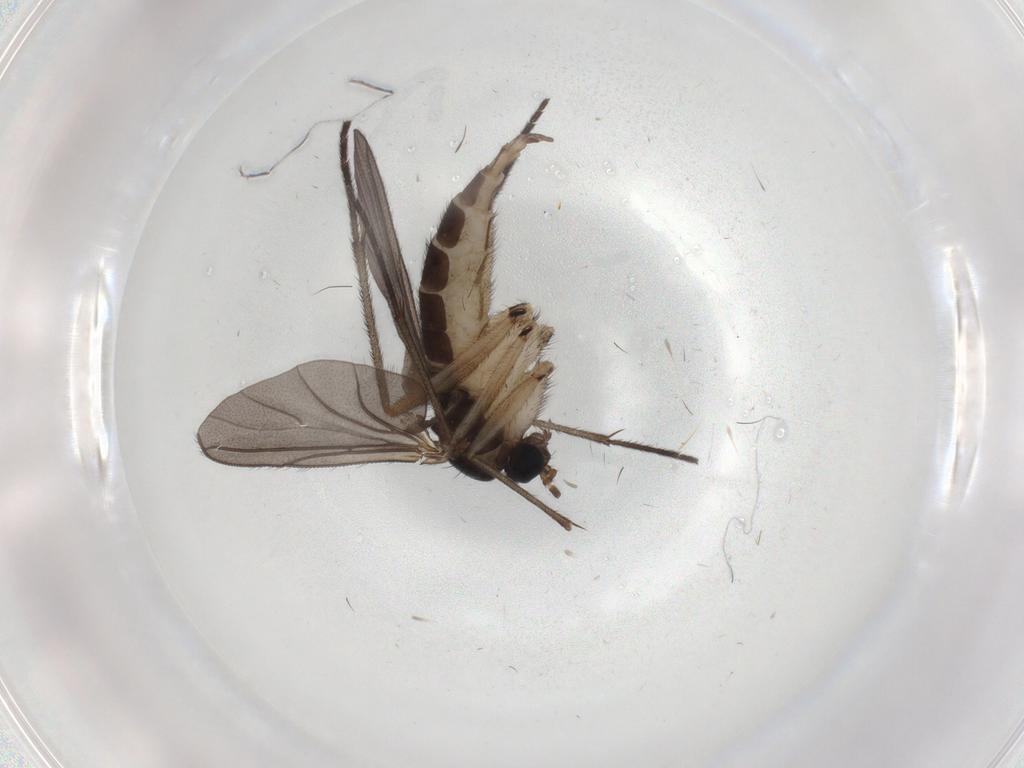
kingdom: Animalia
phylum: Arthropoda
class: Insecta
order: Diptera
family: Sciaridae
